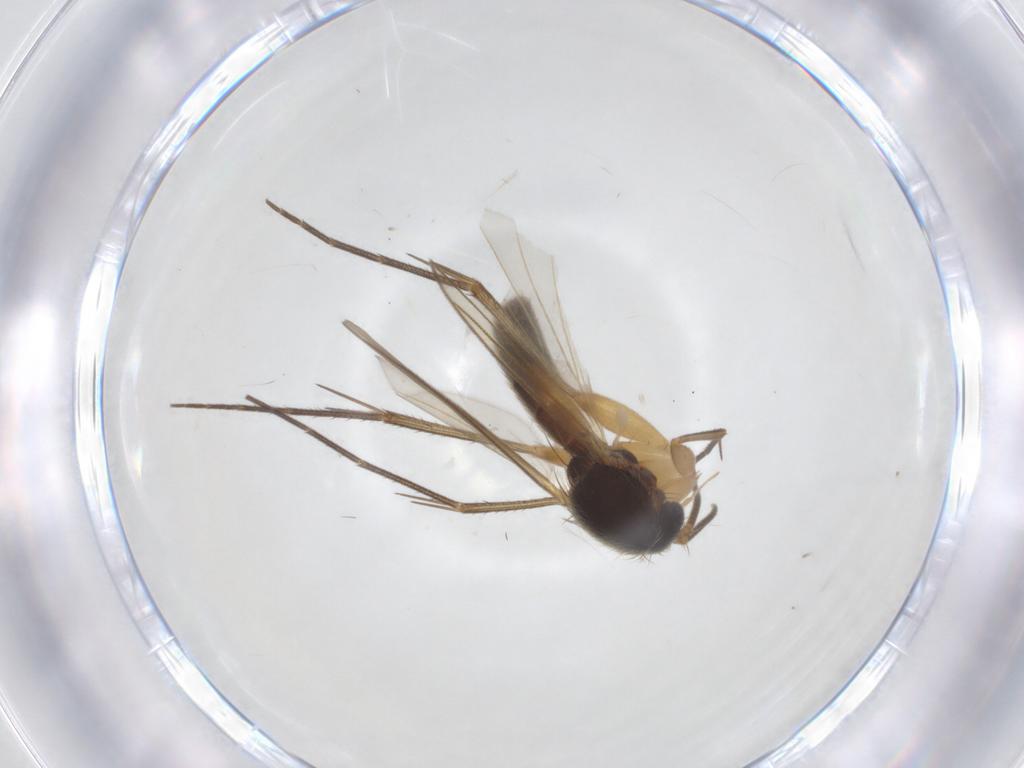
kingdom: Animalia
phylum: Arthropoda
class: Insecta
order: Diptera
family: Mycetophilidae
